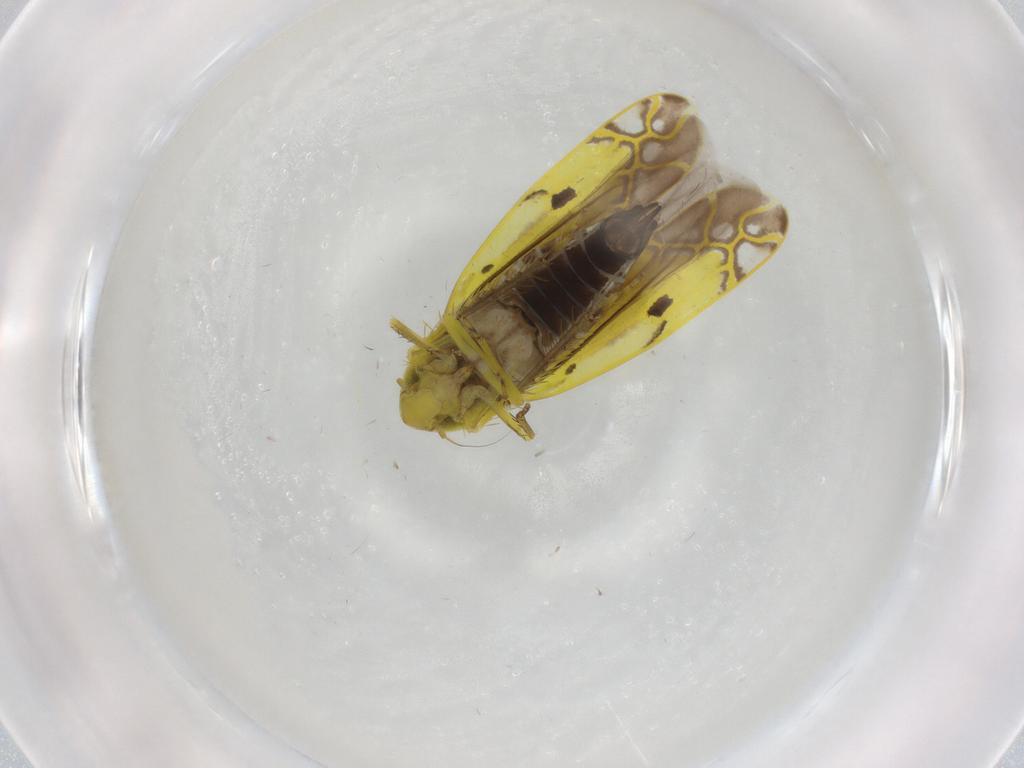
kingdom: Animalia
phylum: Arthropoda
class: Insecta
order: Hemiptera
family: Cicadellidae
